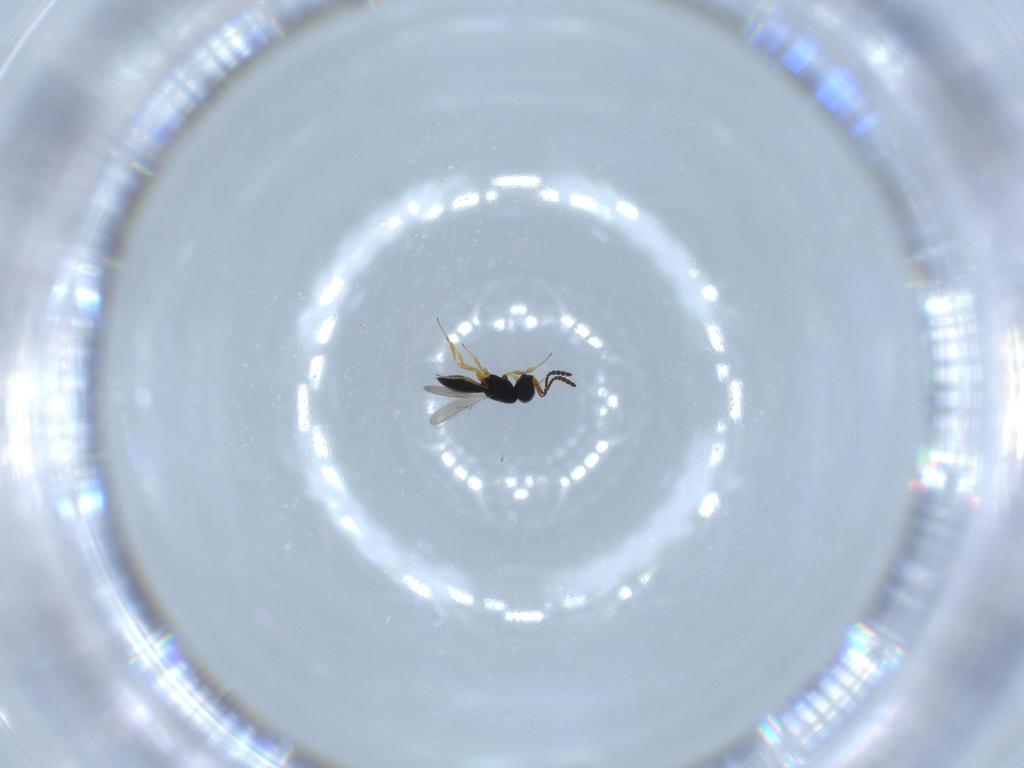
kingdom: Animalia
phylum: Arthropoda
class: Insecta
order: Hymenoptera
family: Scelionidae
